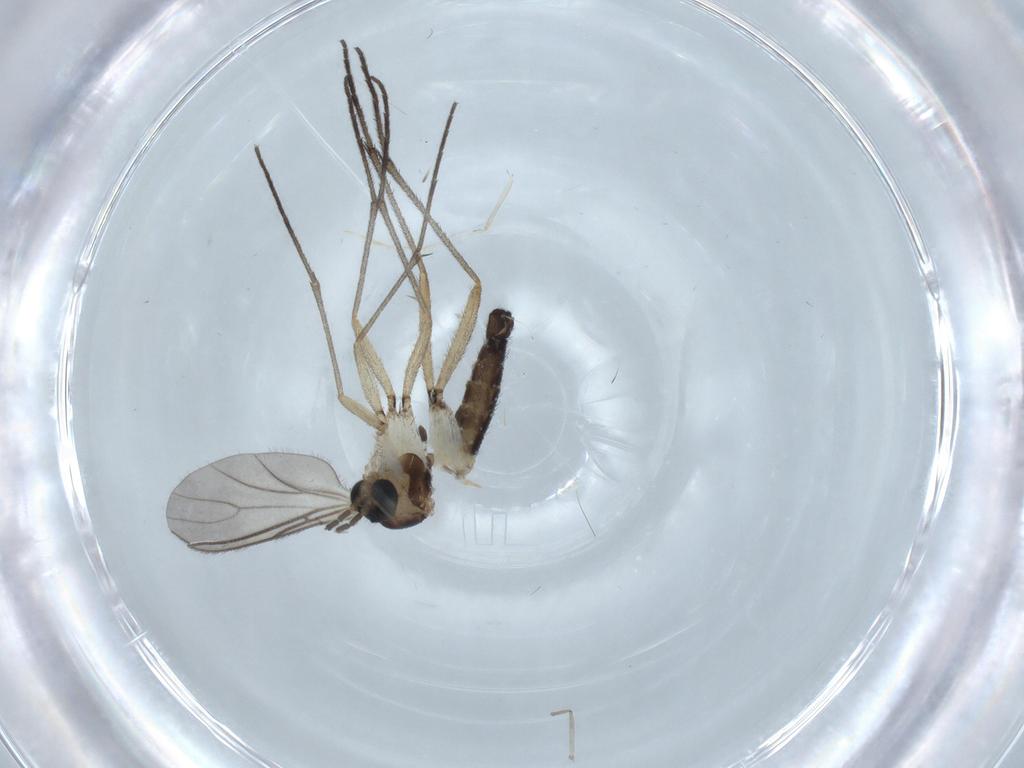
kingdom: Animalia
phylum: Arthropoda
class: Insecta
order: Diptera
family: Sciaridae
